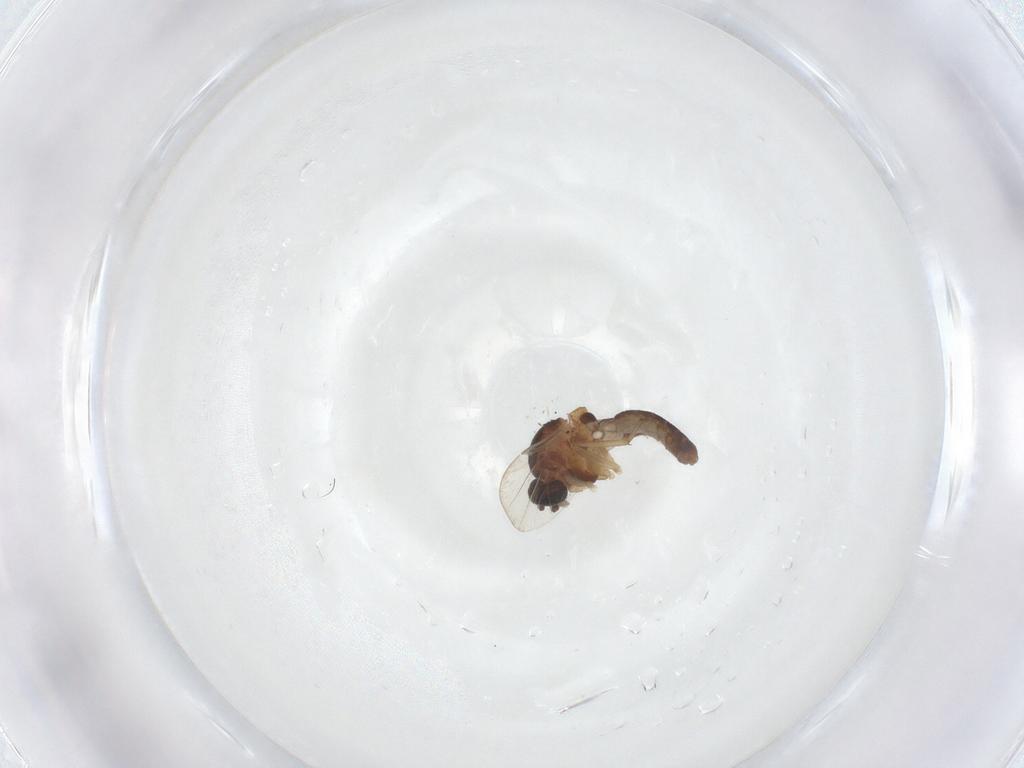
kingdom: Animalia
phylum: Arthropoda
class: Insecta
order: Diptera
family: Ceratopogonidae
